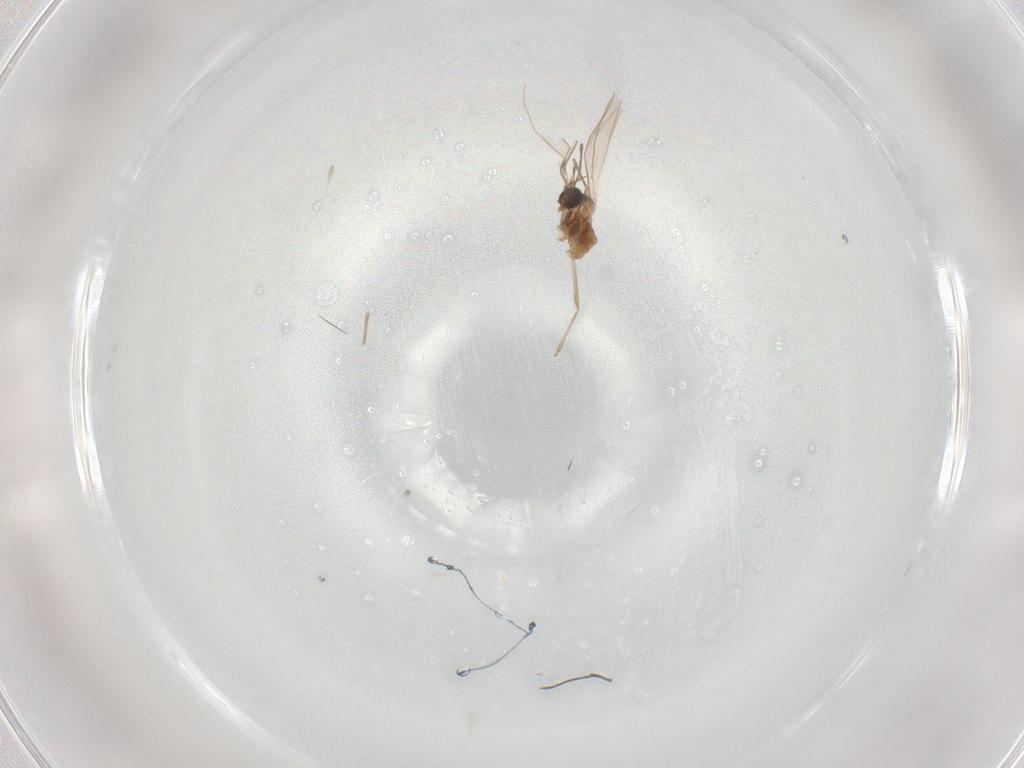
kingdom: Animalia
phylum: Arthropoda
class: Insecta
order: Diptera
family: Cecidomyiidae
